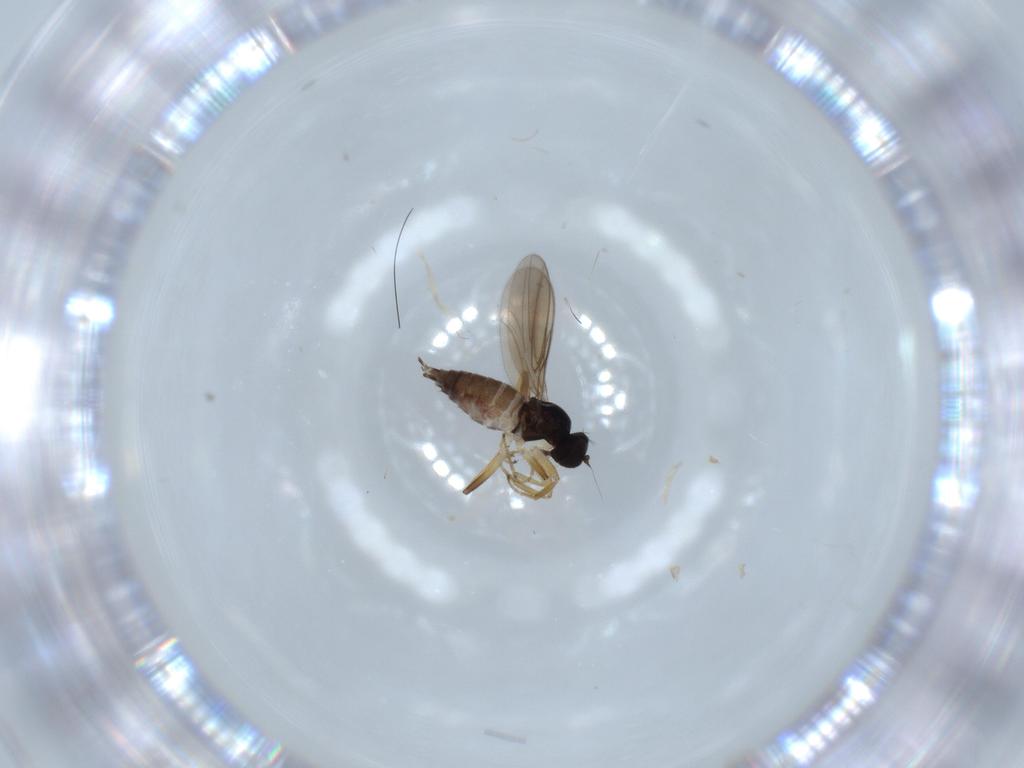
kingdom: Animalia
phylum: Arthropoda
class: Insecta
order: Diptera
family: Hybotidae
